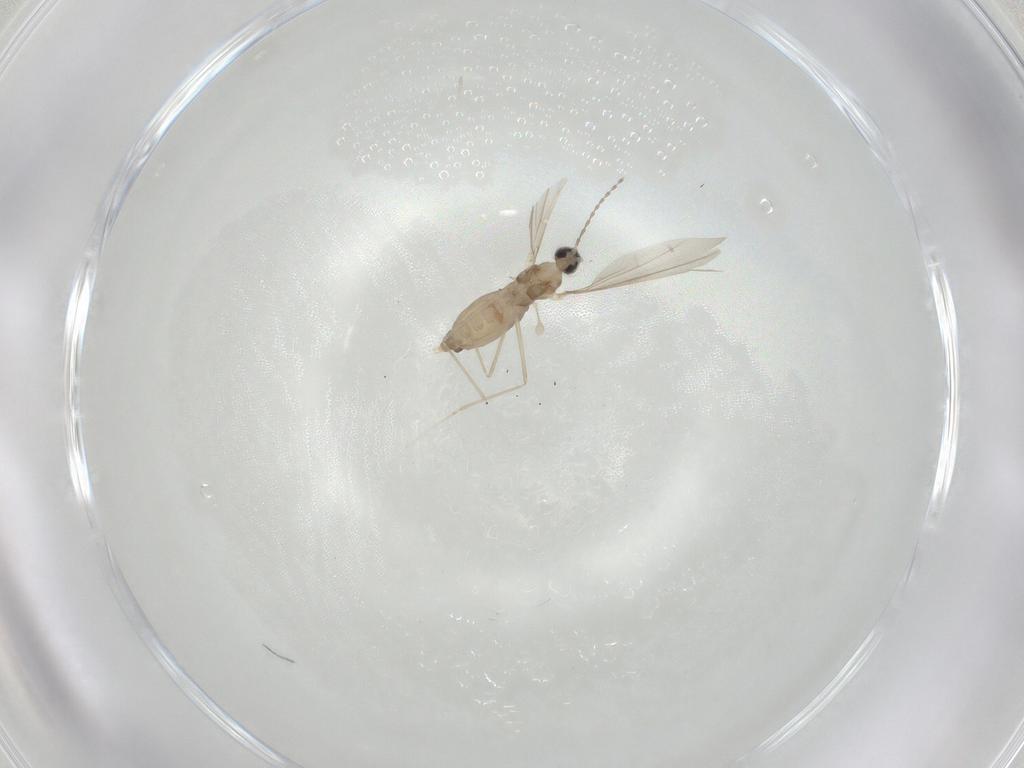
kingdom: Animalia
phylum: Arthropoda
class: Insecta
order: Diptera
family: Cecidomyiidae
